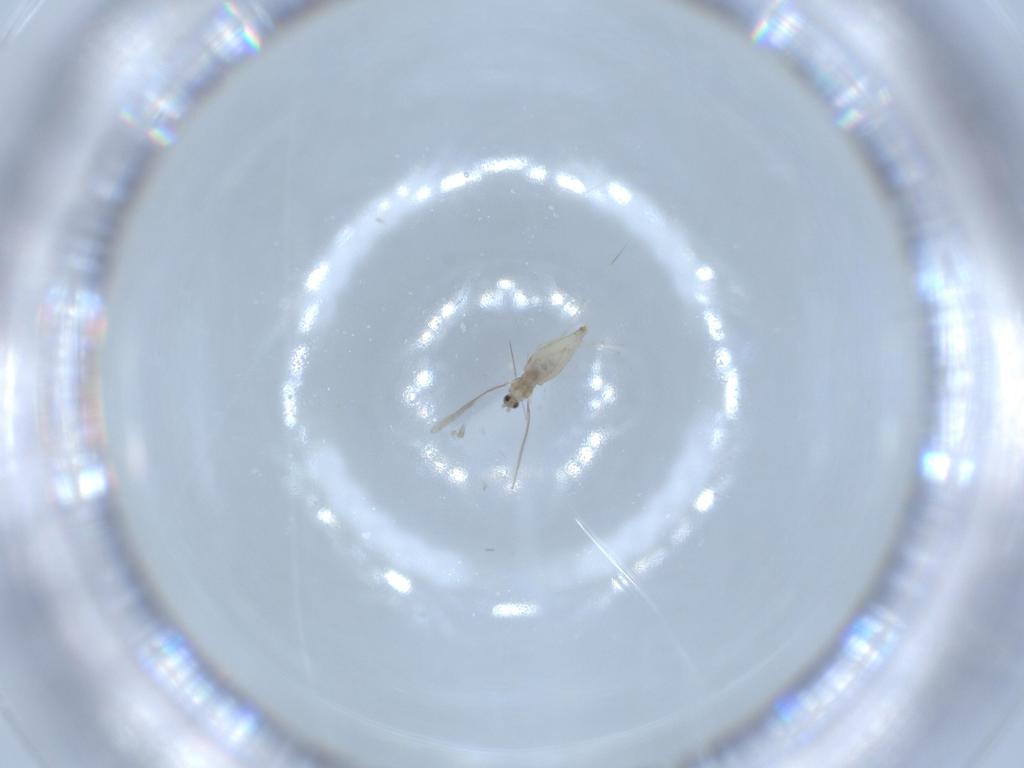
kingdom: Animalia
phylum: Arthropoda
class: Insecta
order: Diptera
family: Cecidomyiidae
